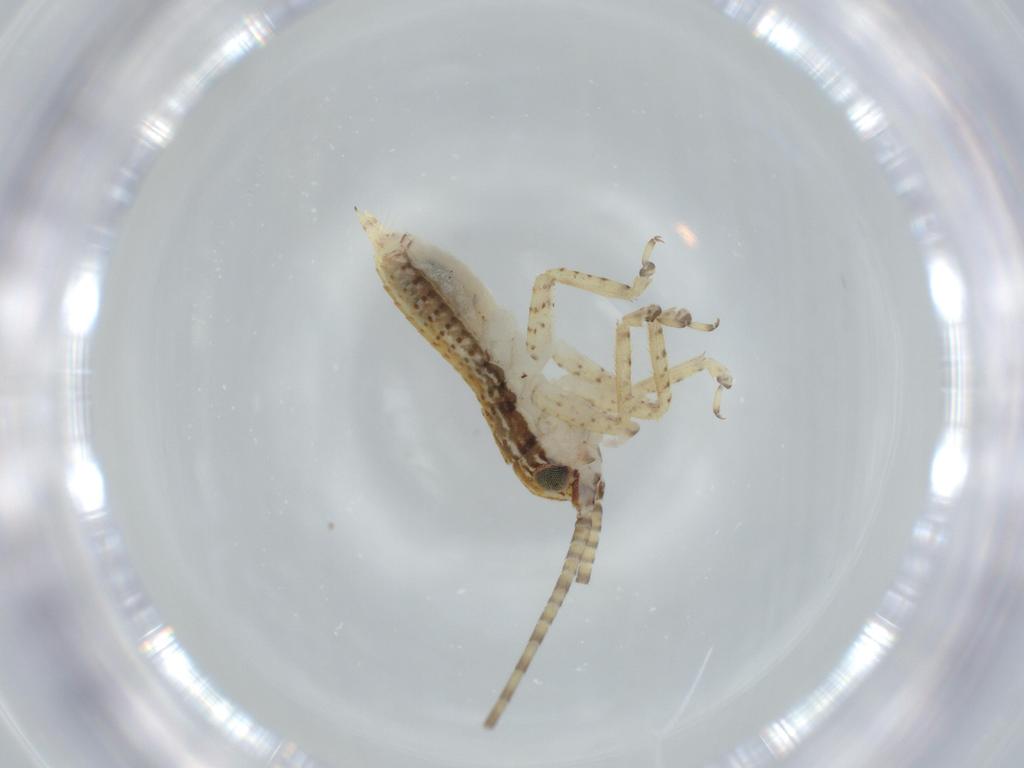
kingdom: Animalia
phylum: Arthropoda
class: Insecta
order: Orthoptera
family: Gryllidae
